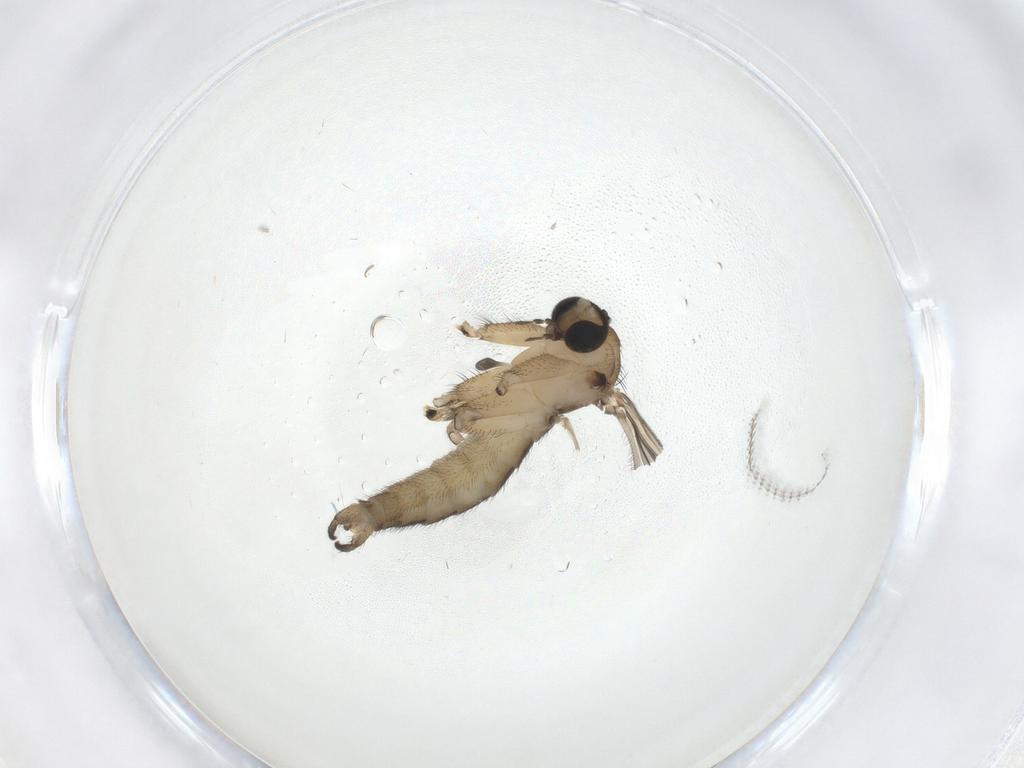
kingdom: Animalia
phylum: Arthropoda
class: Insecta
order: Diptera
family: Sciaridae
